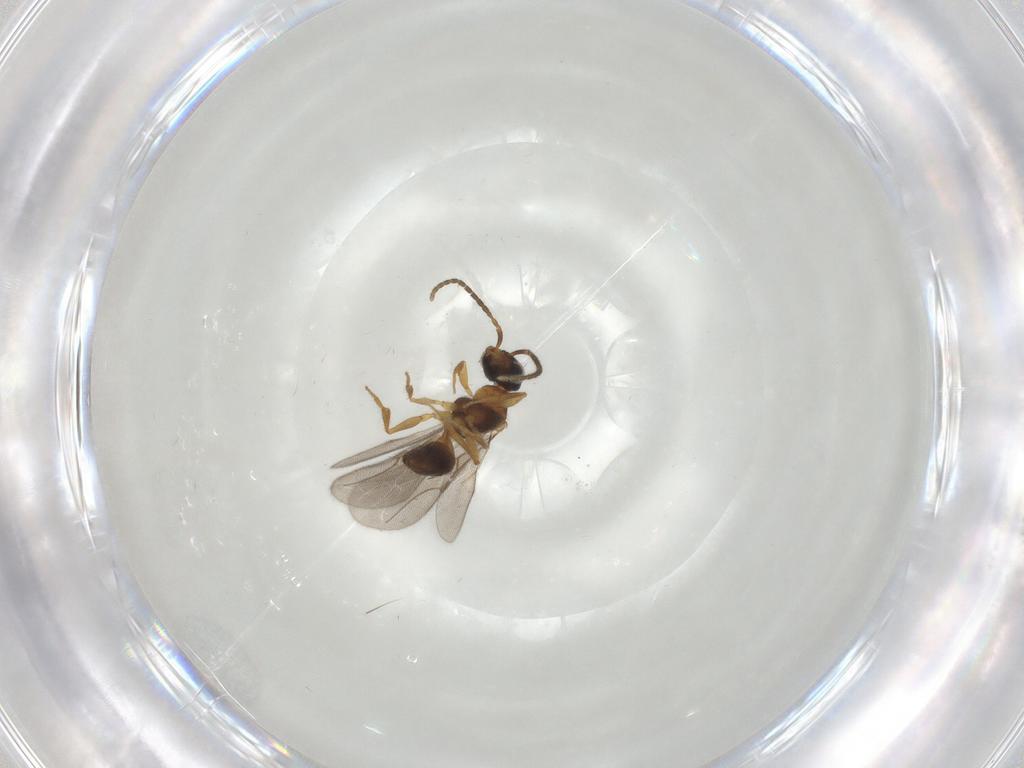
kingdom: Animalia
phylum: Arthropoda
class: Insecta
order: Hymenoptera
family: Bethylidae
